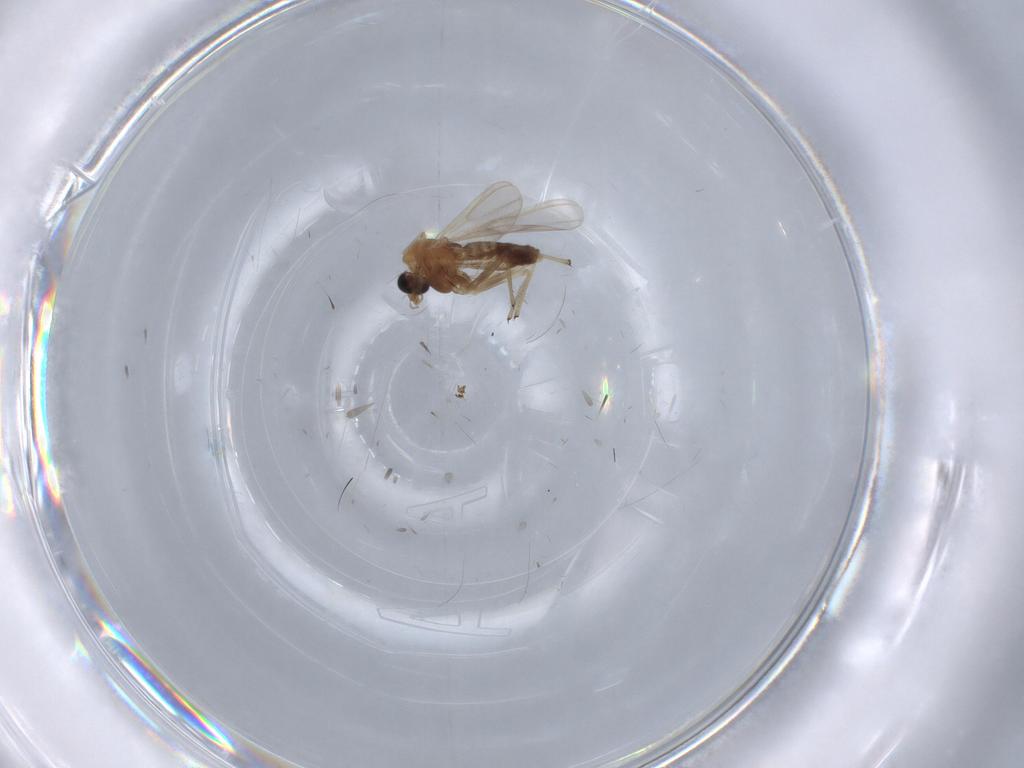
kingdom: Animalia
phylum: Arthropoda
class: Insecta
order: Diptera
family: Chironomidae
